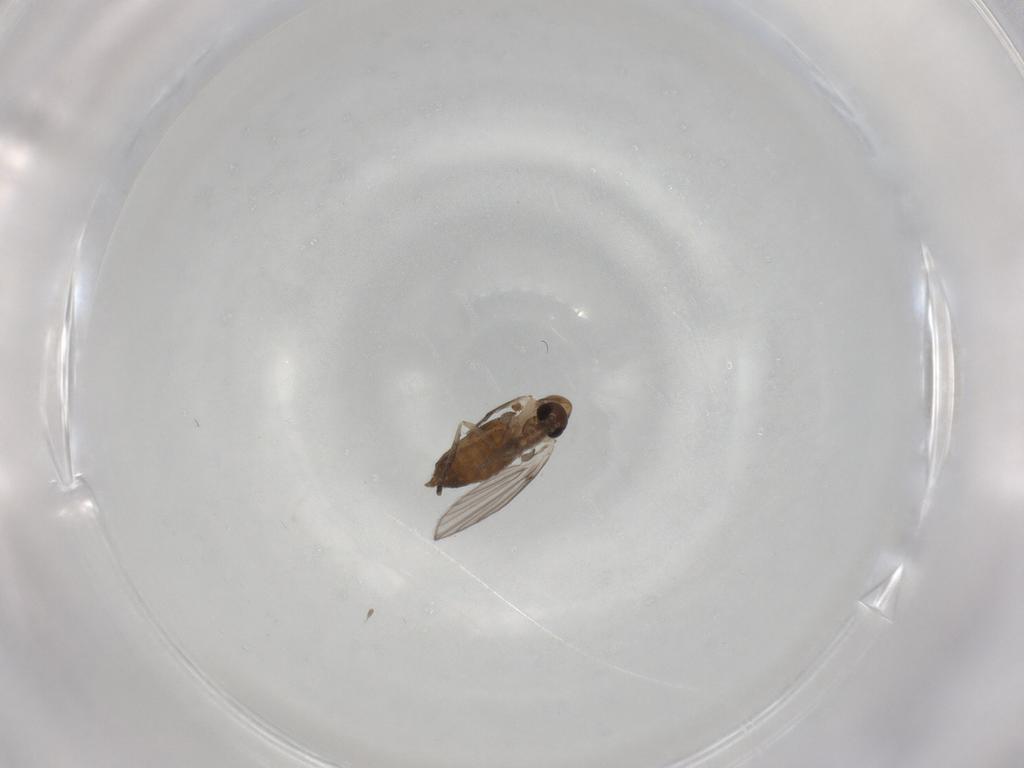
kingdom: Animalia
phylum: Arthropoda
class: Insecta
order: Diptera
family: Psychodidae
